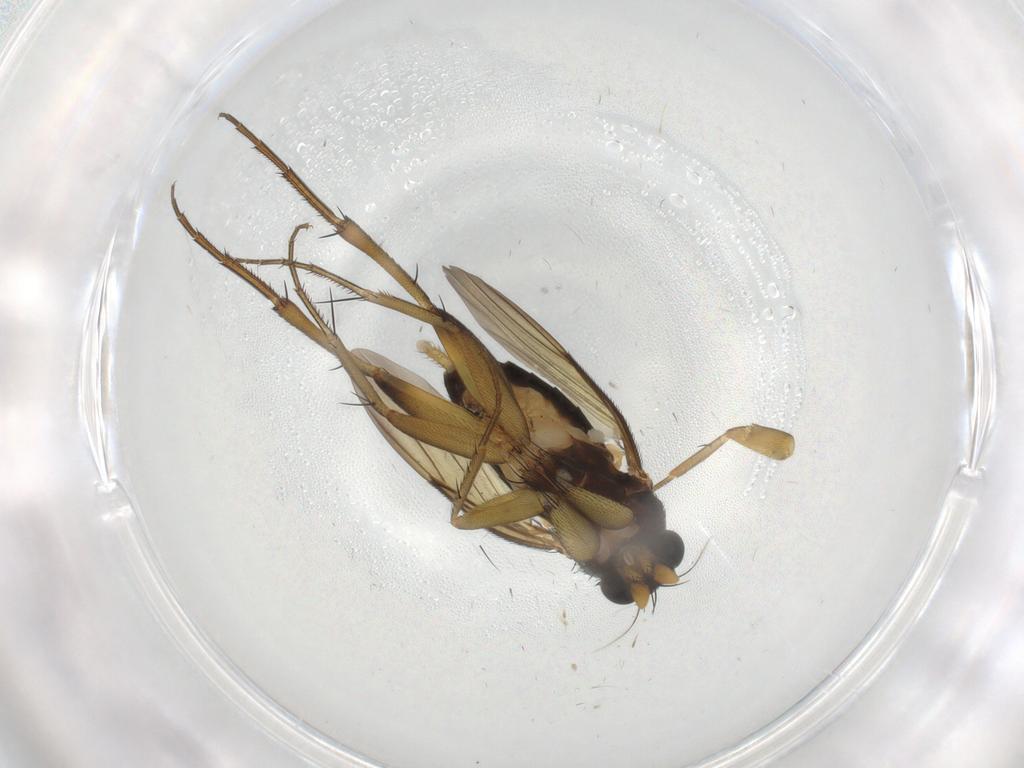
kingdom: Animalia
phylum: Arthropoda
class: Insecta
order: Diptera
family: Phoridae
